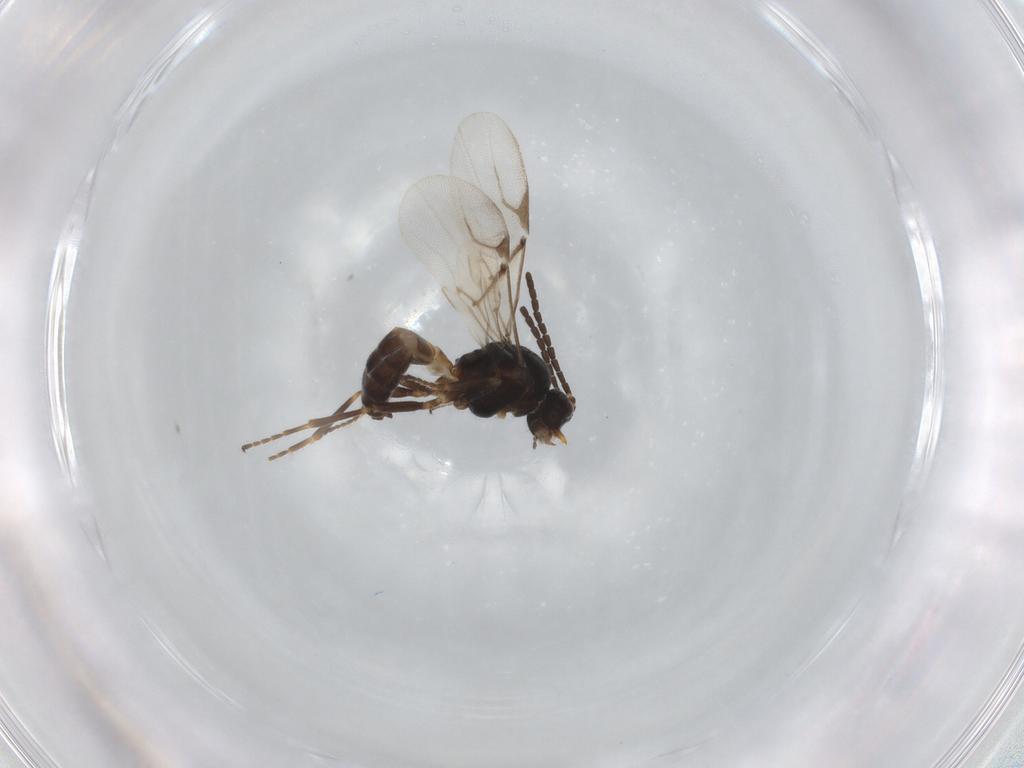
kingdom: Animalia
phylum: Arthropoda
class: Insecta
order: Hymenoptera
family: Braconidae
